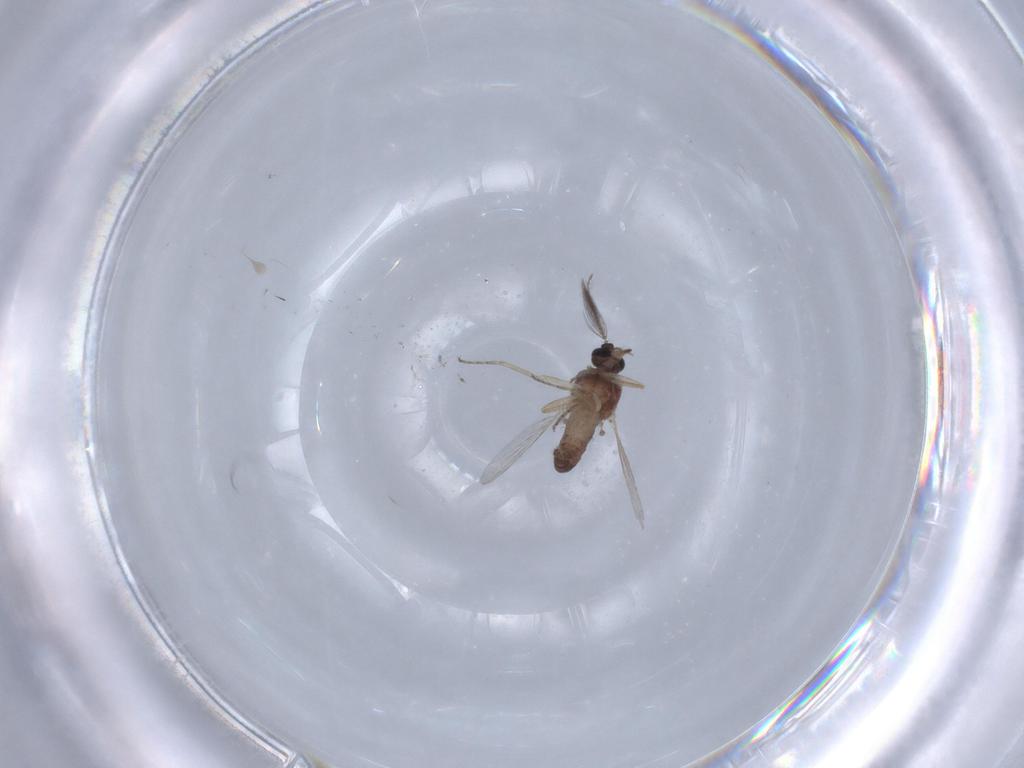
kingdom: Animalia
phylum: Arthropoda
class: Insecta
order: Diptera
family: Ceratopogonidae
